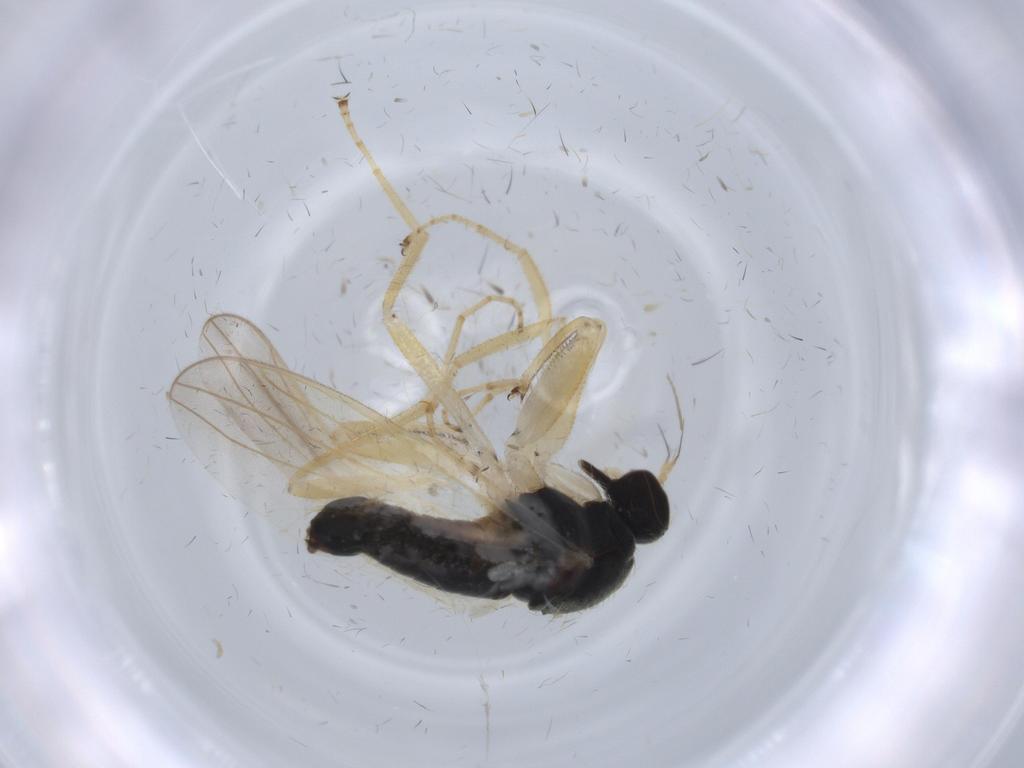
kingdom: Animalia
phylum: Arthropoda
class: Insecta
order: Diptera
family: Hybotidae
